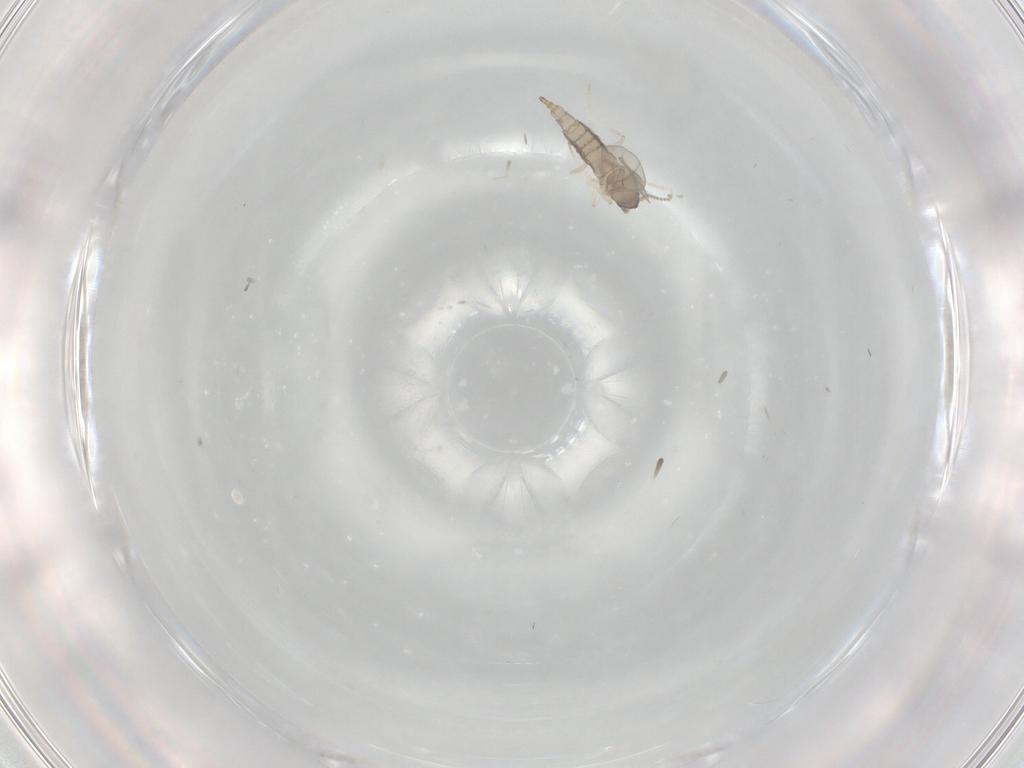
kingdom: Animalia
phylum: Arthropoda
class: Insecta
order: Diptera
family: Cecidomyiidae
